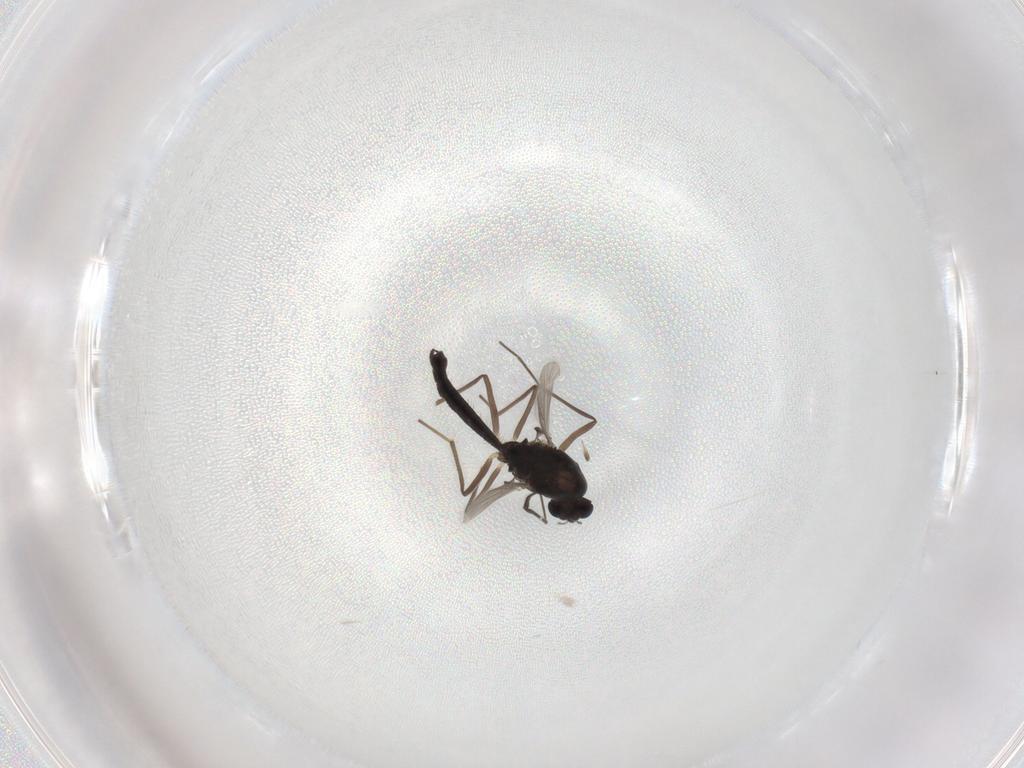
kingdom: Animalia
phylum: Arthropoda
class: Insecta
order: Diptera
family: Chironomidae
